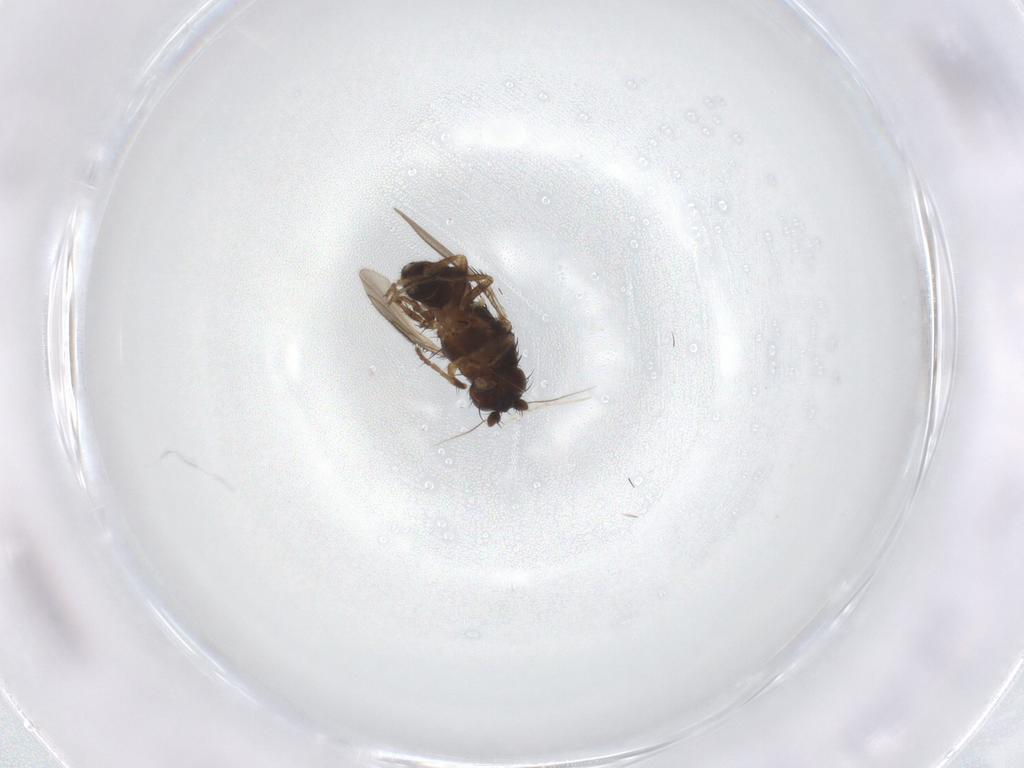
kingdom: Animalia
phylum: Arthropoda
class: Insecta
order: Diptera
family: Sphaeroceridae
